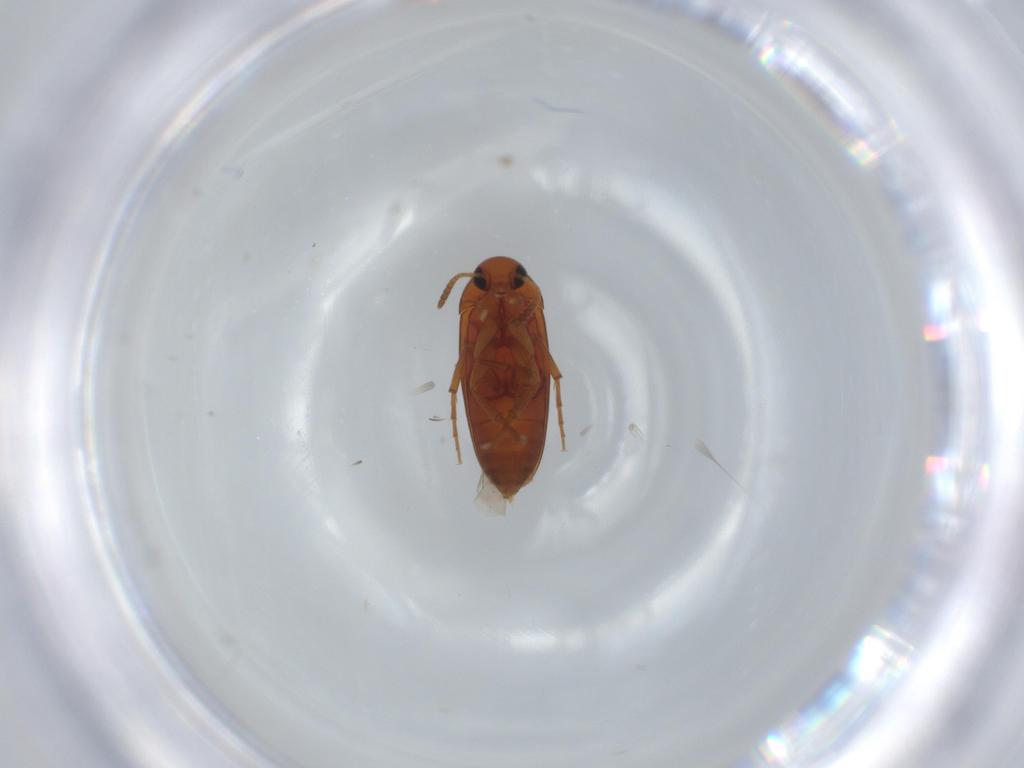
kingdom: Animalia
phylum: Arthropoda
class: Insecta
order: Coleoptera
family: Scraptiidae
